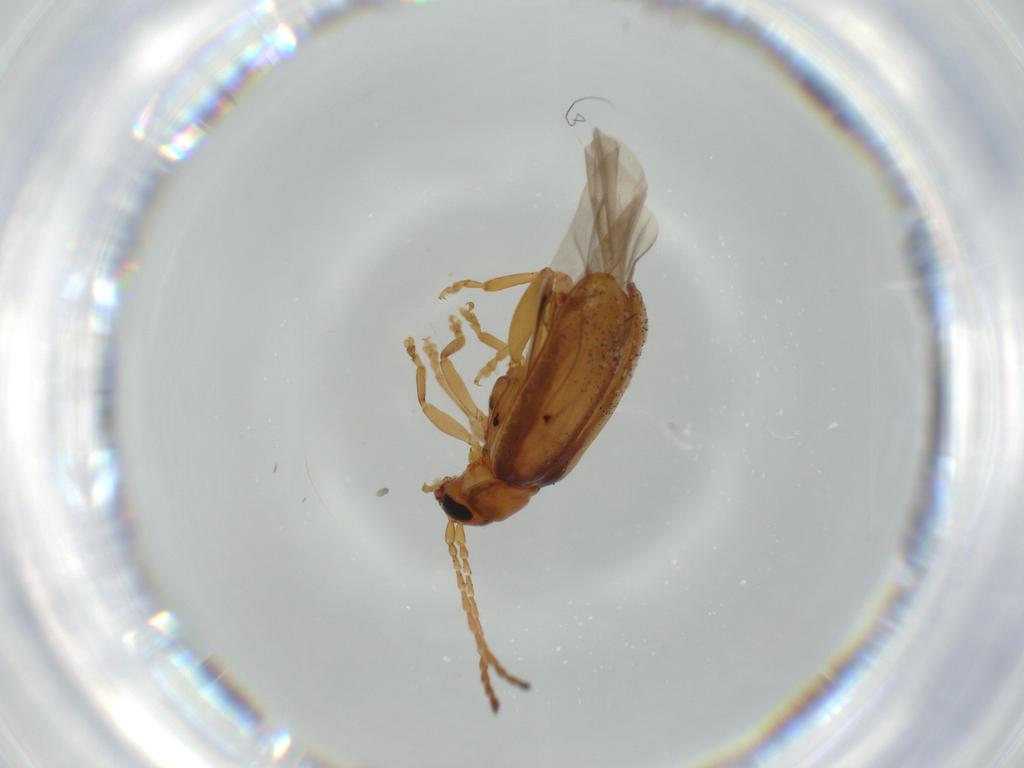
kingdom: Animalia
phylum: Arthropoda
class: Insecta
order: Coleoptera
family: Chrysomelidae
